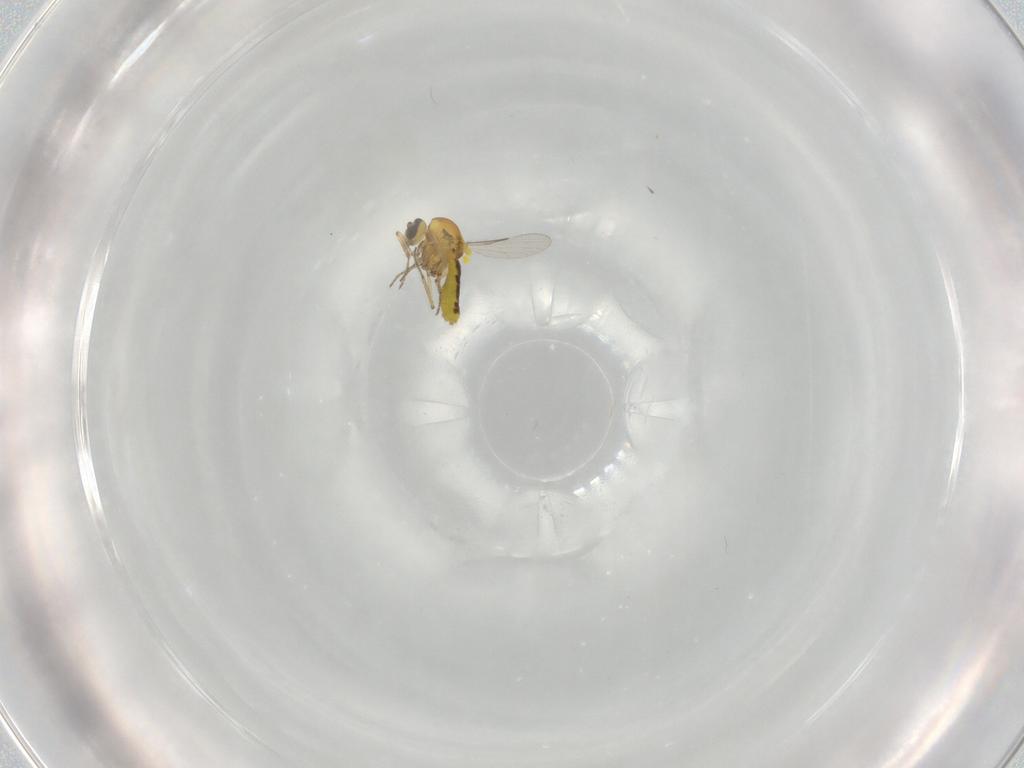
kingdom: Animalia
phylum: Arthropoda
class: Insecta
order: Diptera
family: Ceratopogonidae
